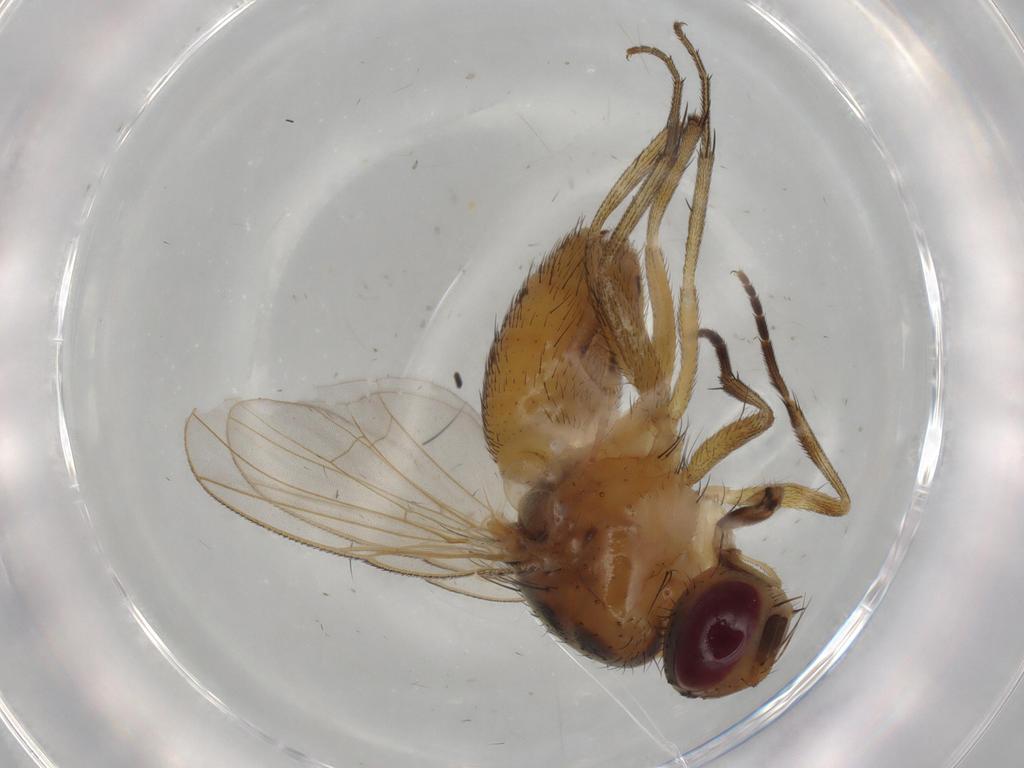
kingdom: Animalia
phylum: Arthropoda
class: Insecta
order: Diptera
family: Muscidae
